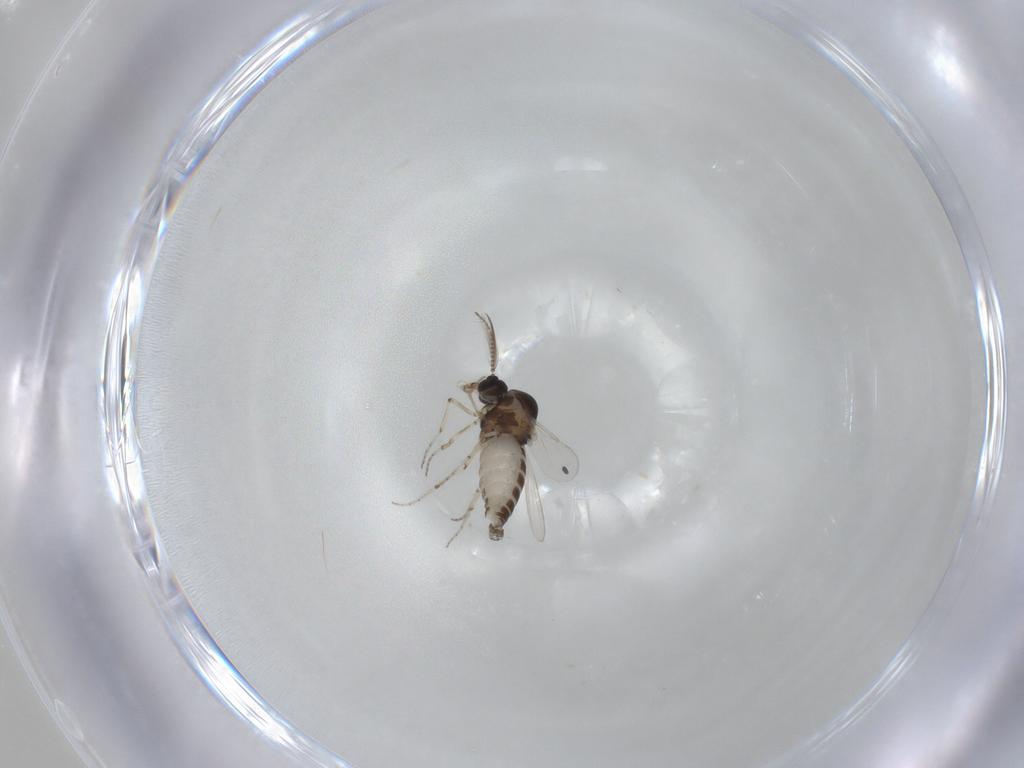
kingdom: Animalia
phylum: Arthropoda
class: Insecta
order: Diptera
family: Ceratopogonidae
